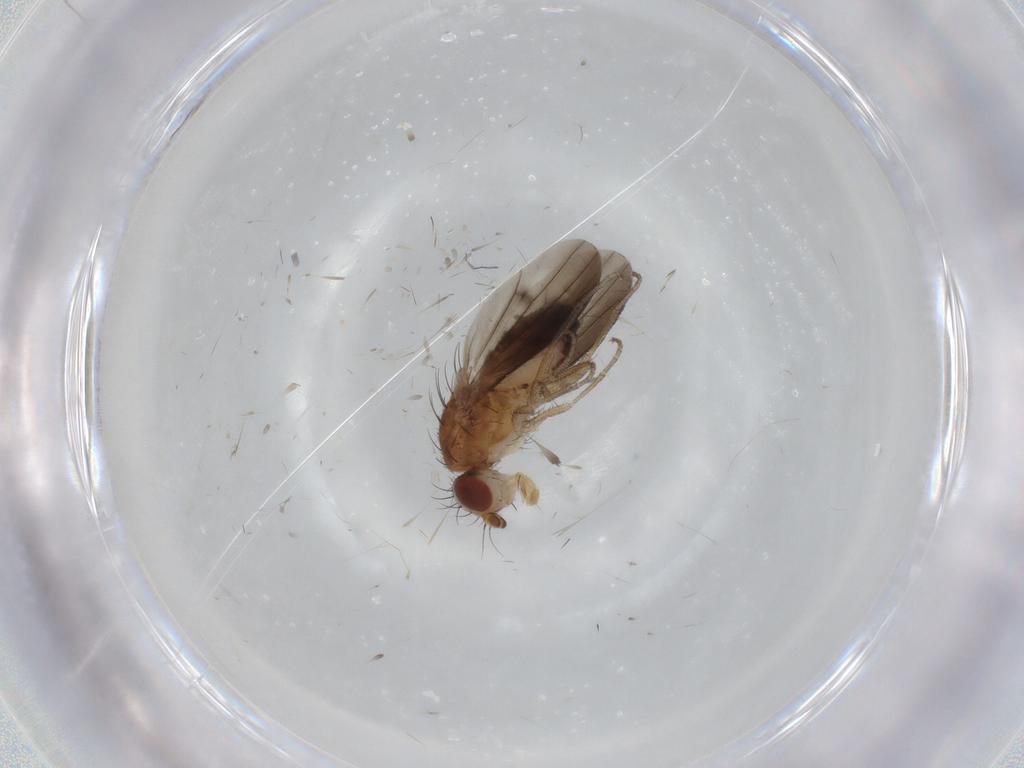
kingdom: Animalia
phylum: Arthropoda
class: Insecta
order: Diptera
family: Heleomyzidae
